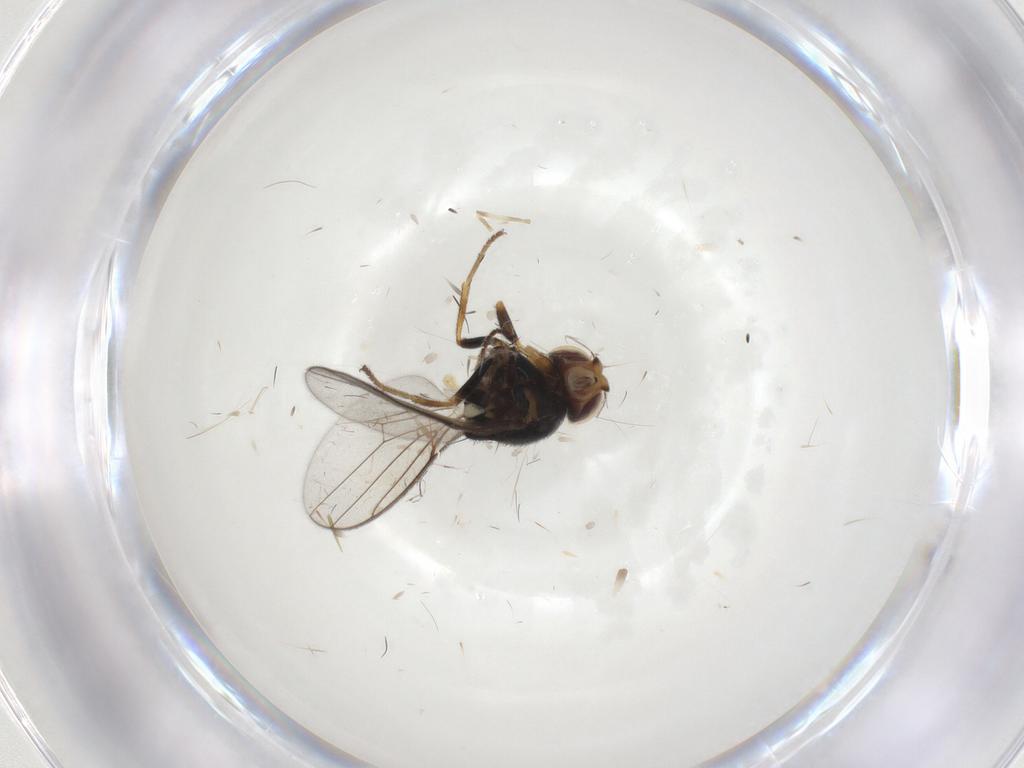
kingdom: Animalia
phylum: Arthropoda
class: Insecta
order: Diptera
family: Chloropidae
